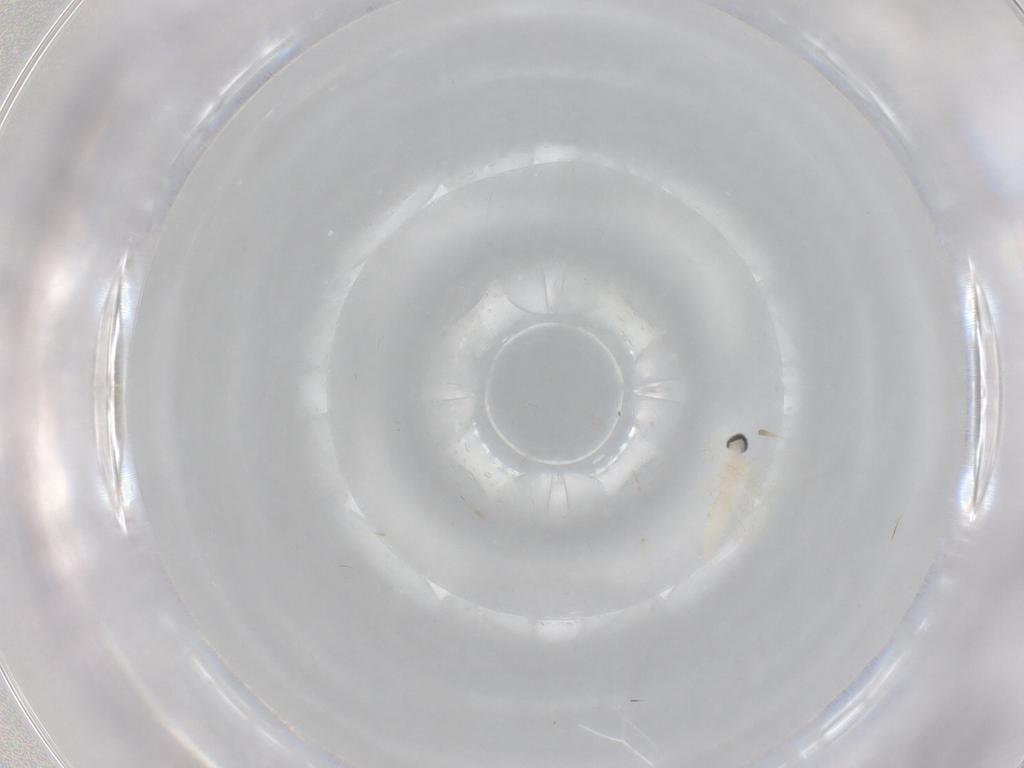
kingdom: Animalia
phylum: Arthropoda
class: Insecta
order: Diptera
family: Cecidomyiidae
